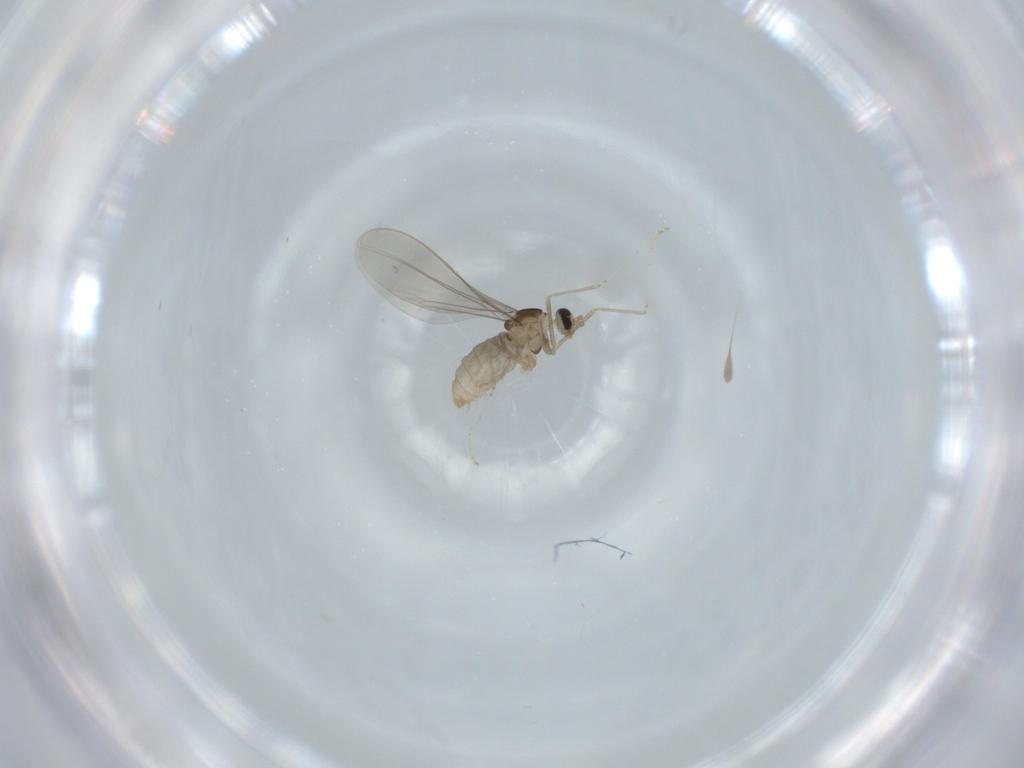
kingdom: Animalia
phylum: Arthropoda
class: Insecta
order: Diptera
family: Cecidomyiidae
